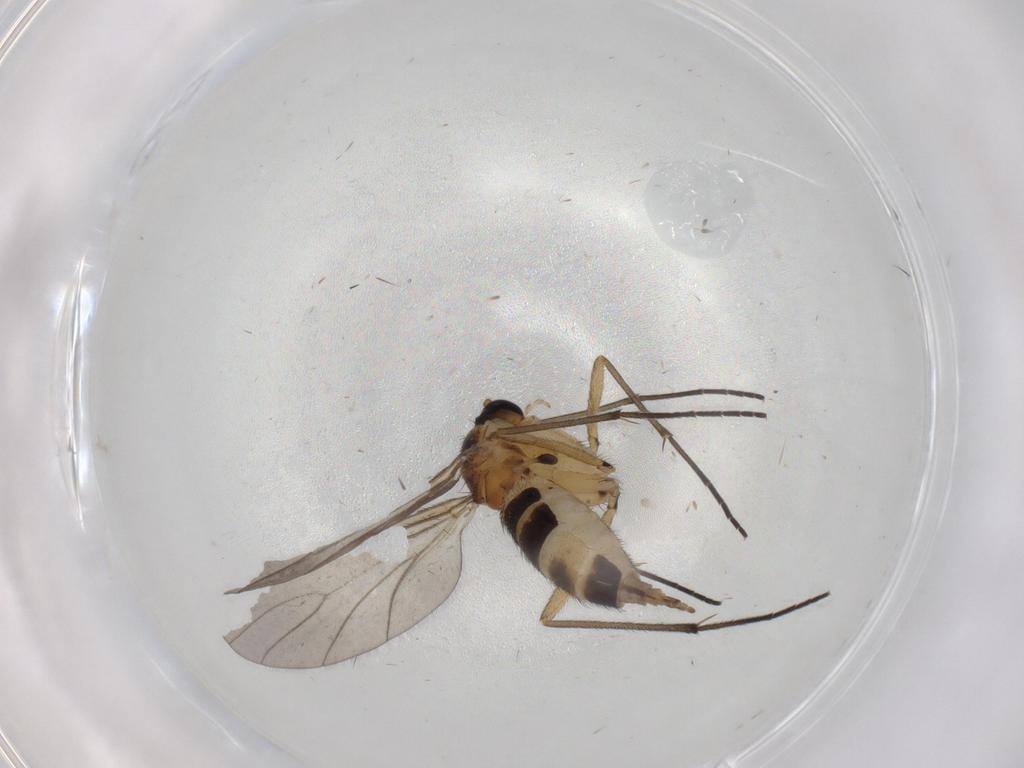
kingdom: Animalia
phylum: Arthropoda
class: Insecta
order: Diptera
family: Sciaridae
